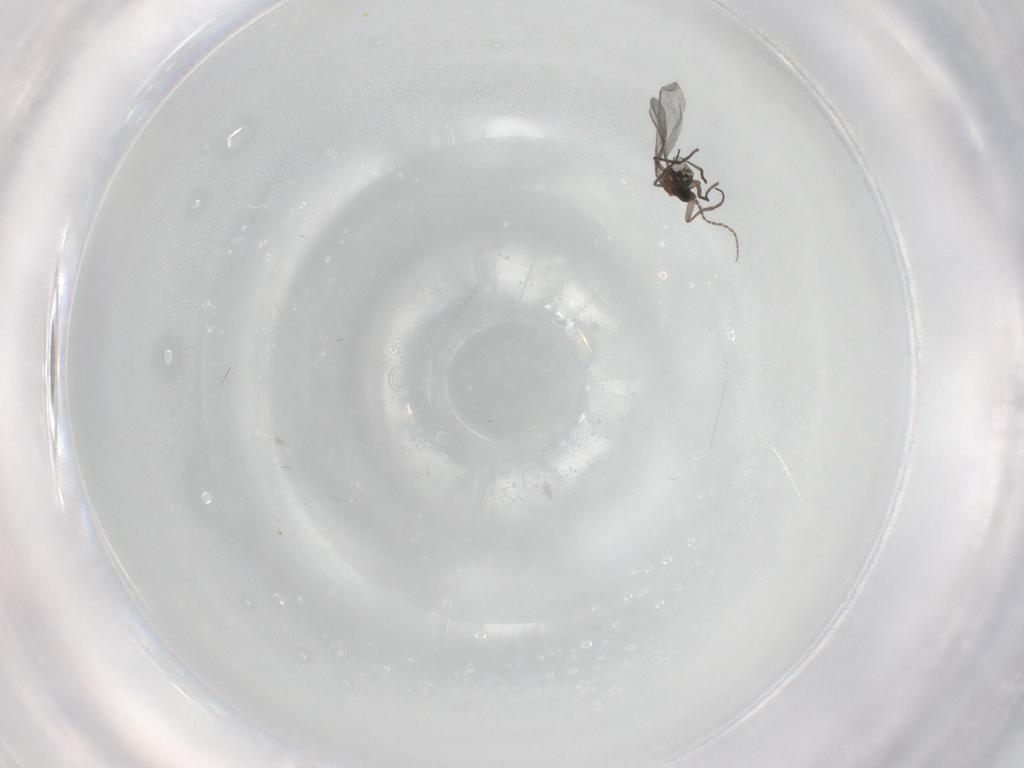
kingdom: Animalia
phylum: Arthropoda
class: Insecta
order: Diptera
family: Sciaridae
